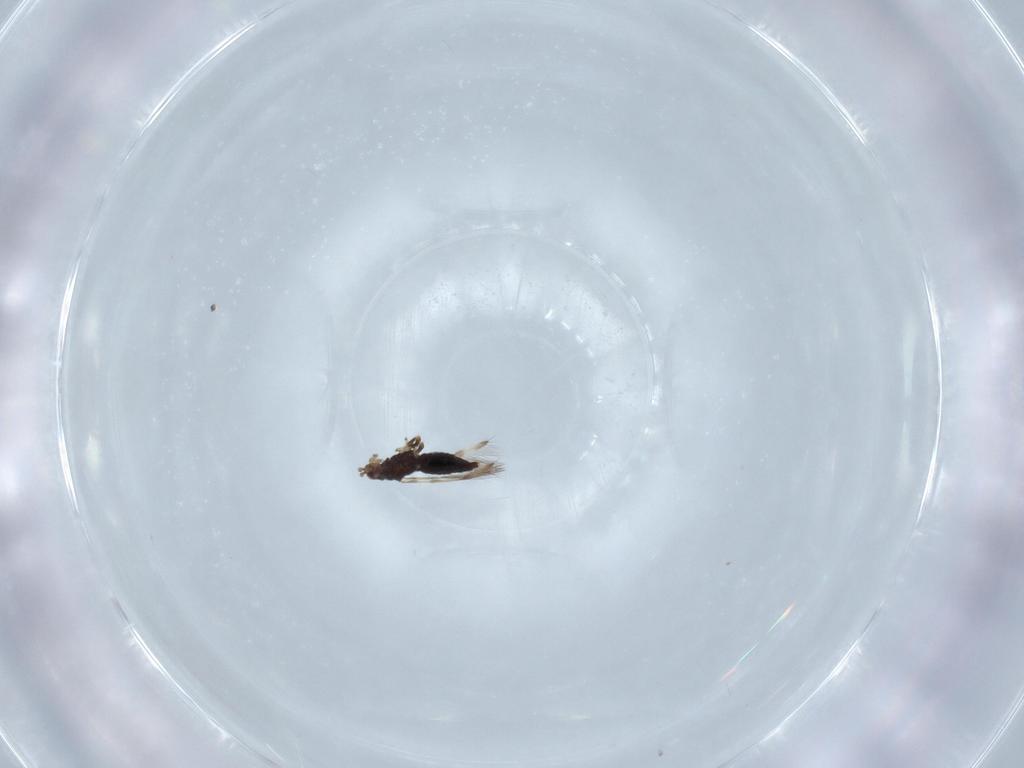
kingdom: Animalia
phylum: Arthropoda
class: Insecta
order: Thysanoptera
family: Thripidae
